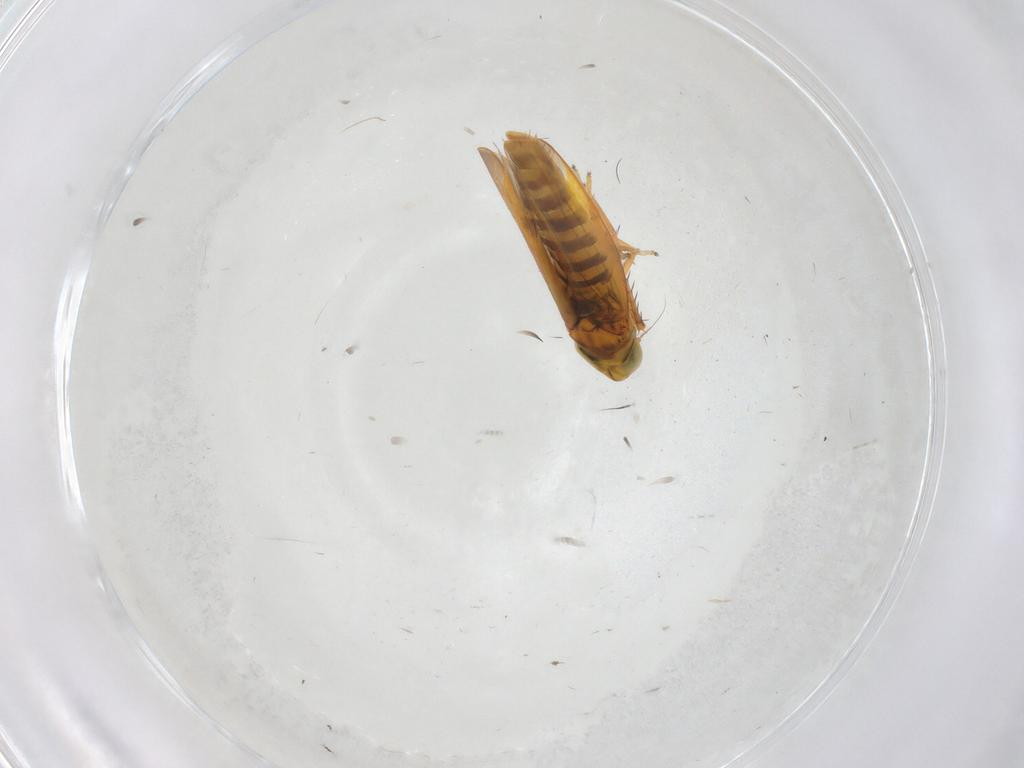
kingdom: Animalia
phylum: Arthropoda
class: Insecta
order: Hemiptera
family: Cicadellidae
